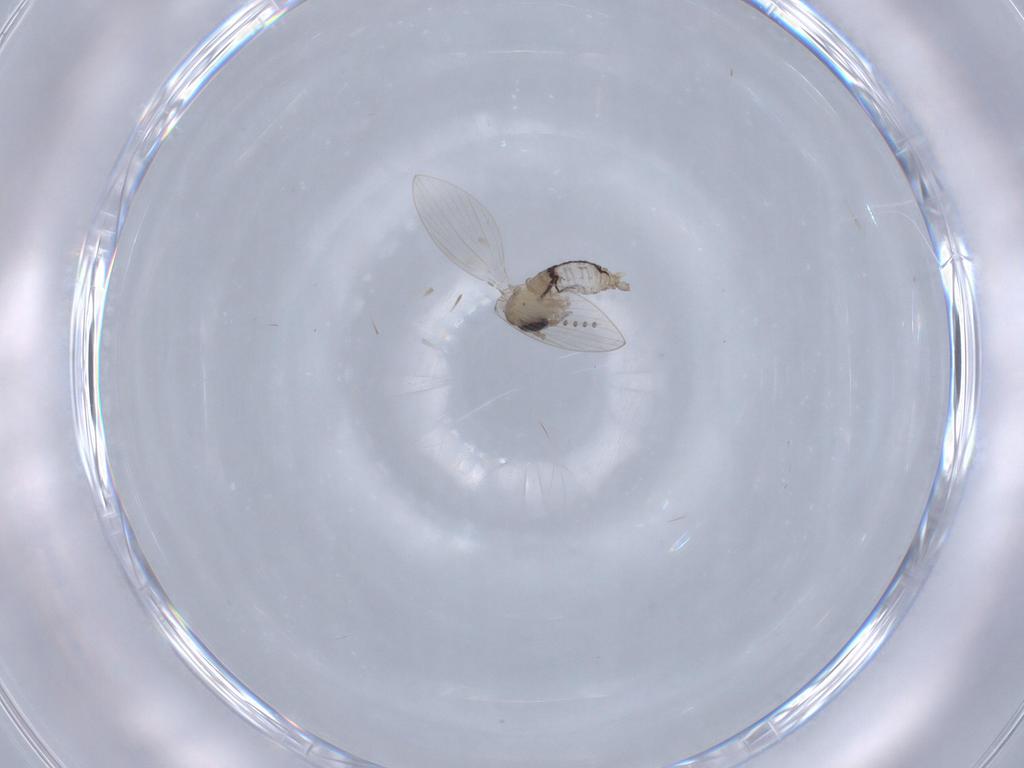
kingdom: Animalia
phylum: Arthropoda
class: Insecta
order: Diptera
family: Psychodidae
